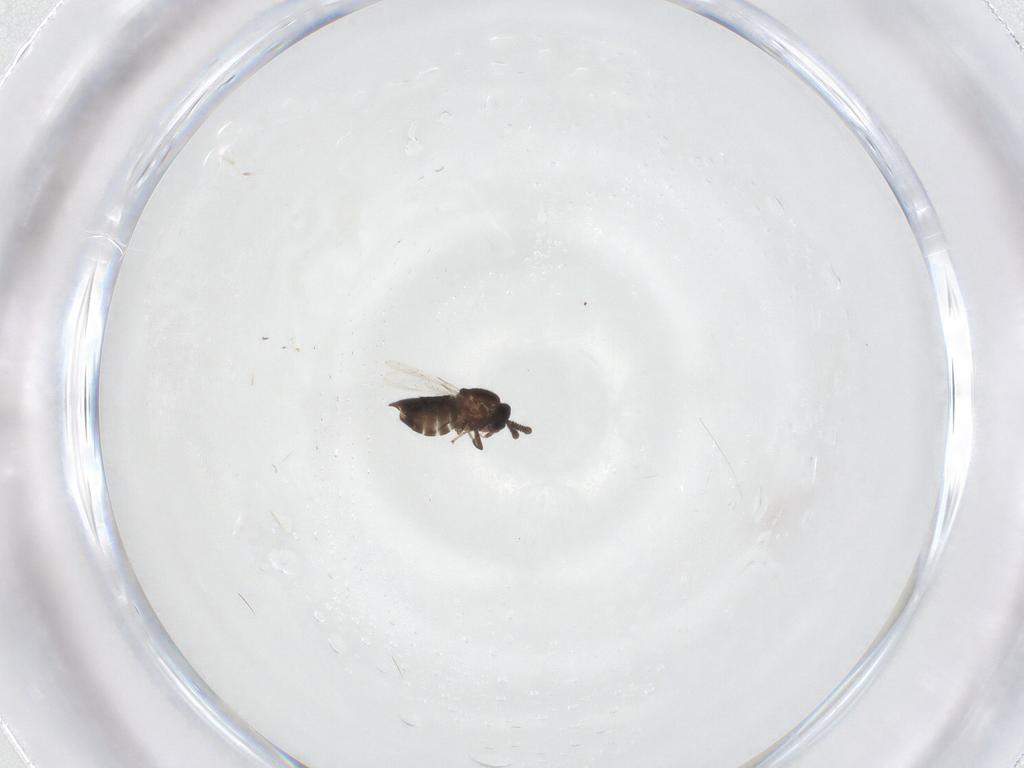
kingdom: Animalia
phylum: Arthropoda
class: Insecta
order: Diptera
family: Scatopsidae
